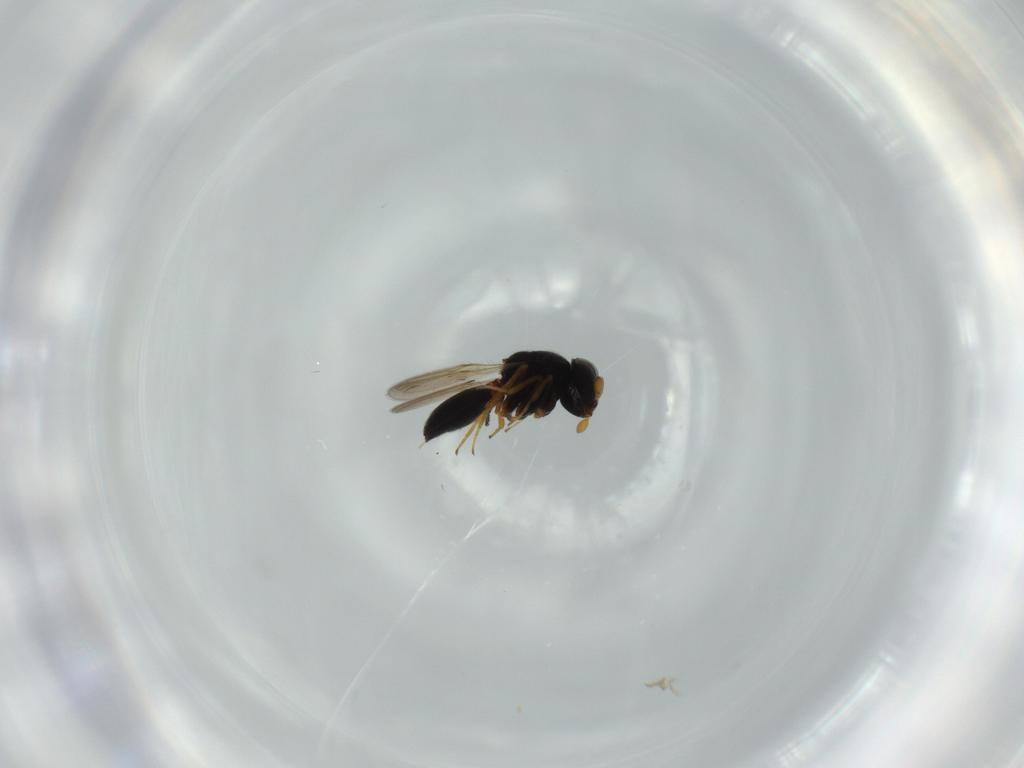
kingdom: Animalia
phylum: Arthropoda
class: Insecta
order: Hymenoptera
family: Scelionidae
